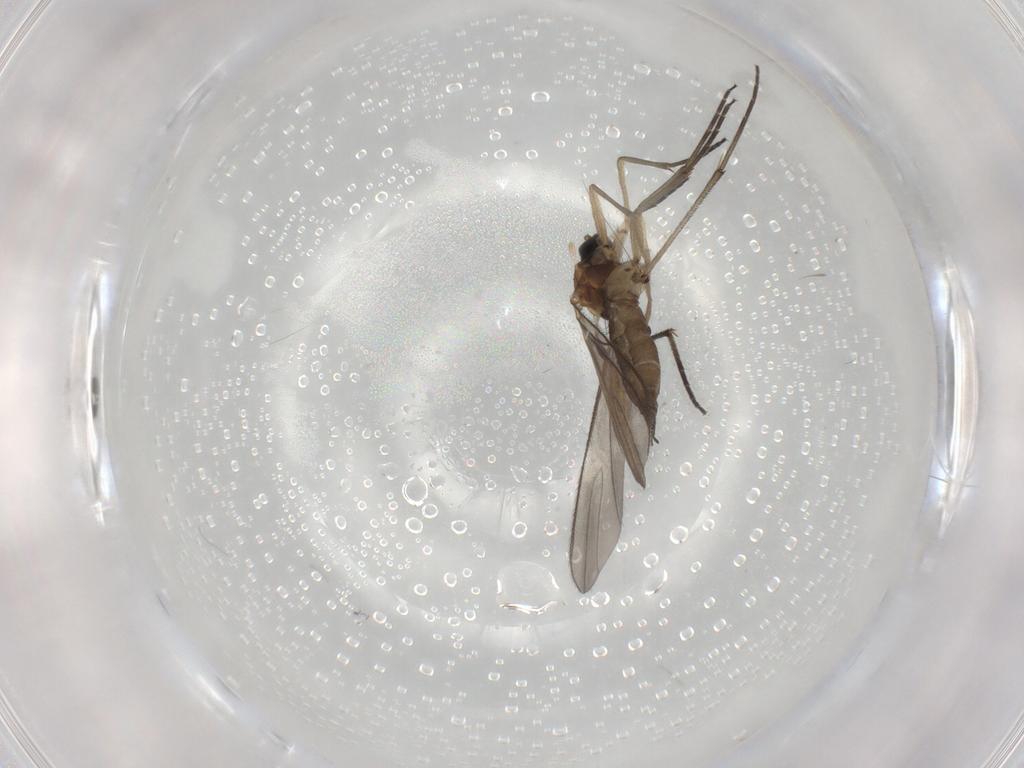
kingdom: Animalia
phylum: Arthropoda
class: Insecta
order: Diptera
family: Sciaridae
